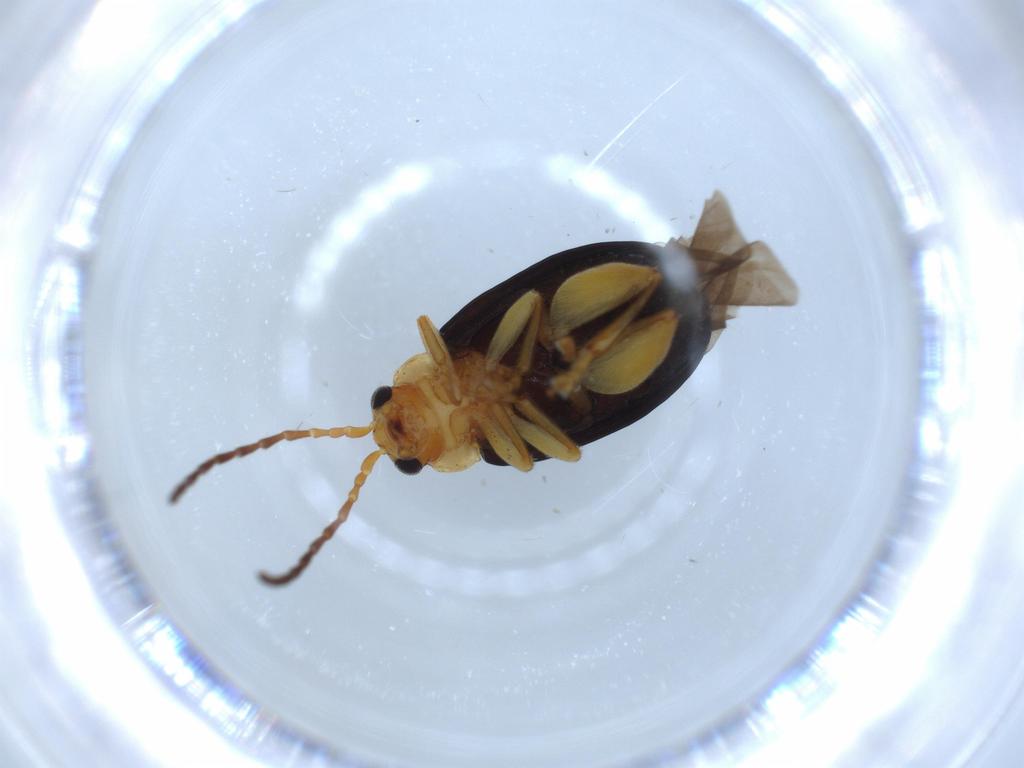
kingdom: Animalia
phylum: Arthropoda
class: Insecta
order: Coleoptera
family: Chrysomelidae
